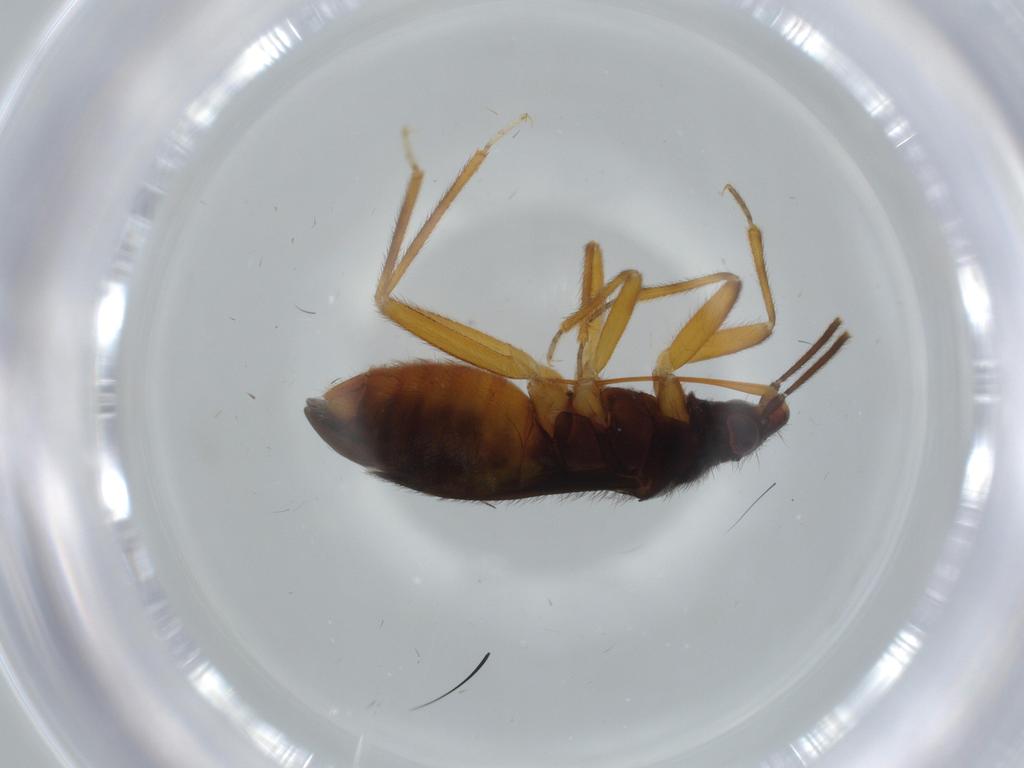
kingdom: Animalia
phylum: Arthropoda
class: Insecta
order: Hemiptera
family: Anthocoridae
